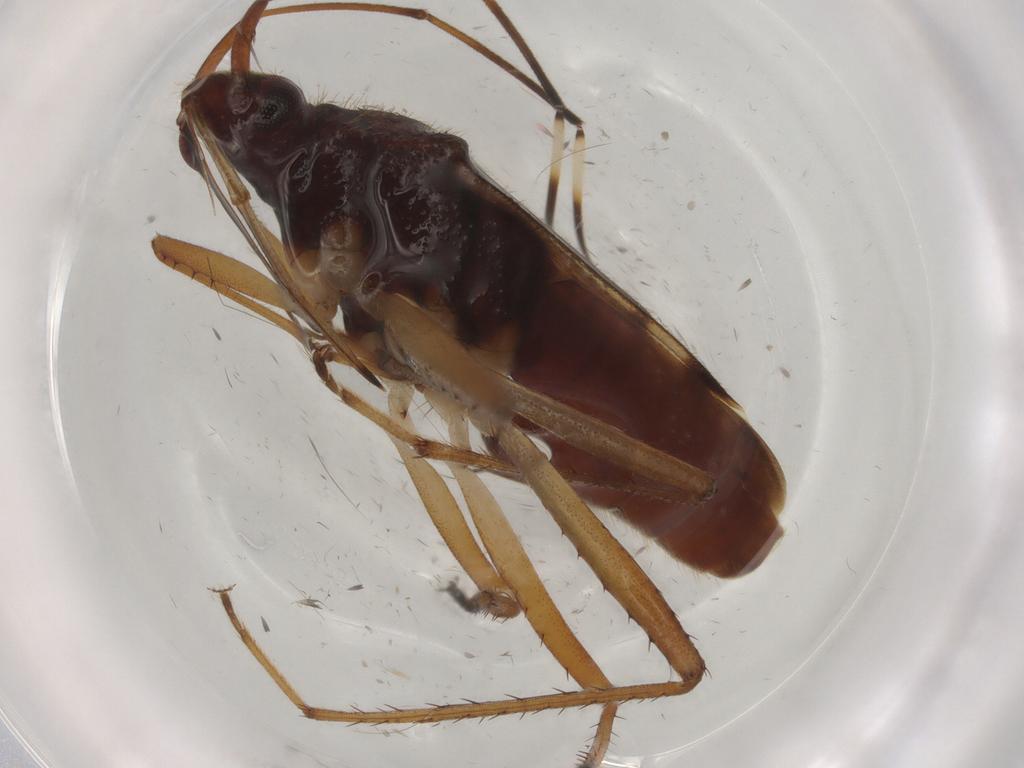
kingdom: Animalia
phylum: Arthropoda
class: Insecta
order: Hemiptera
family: Rhyparochromidae
